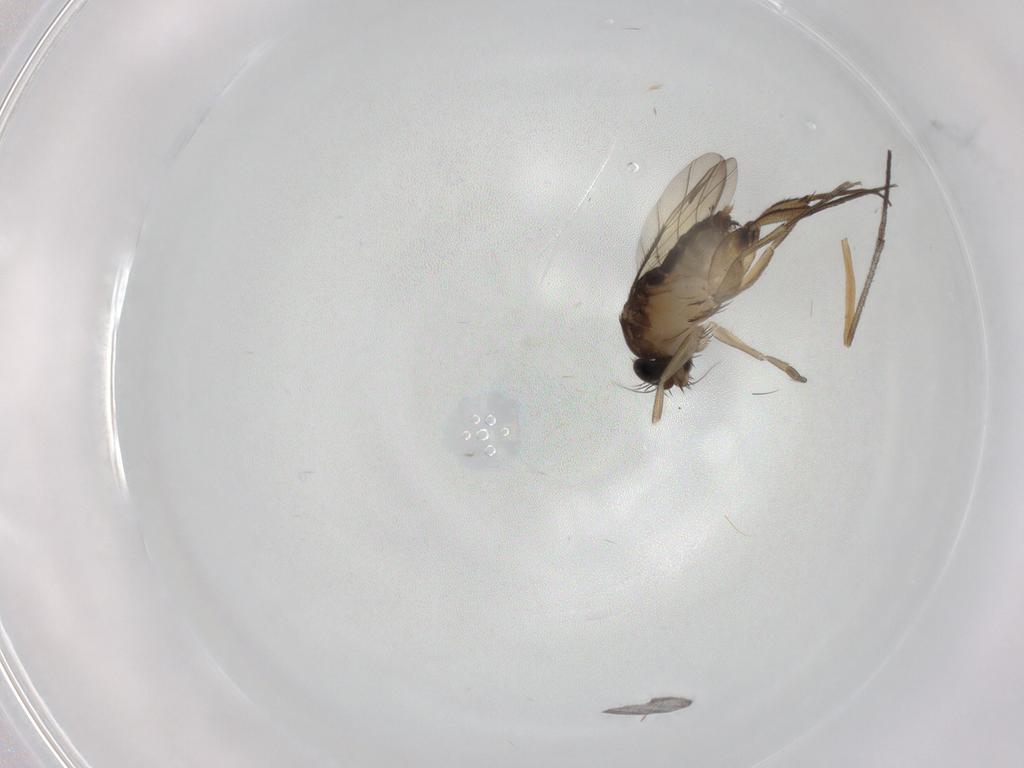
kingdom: Animalia
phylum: Arthropoda
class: Insecta
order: Diptera
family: Phoridae
